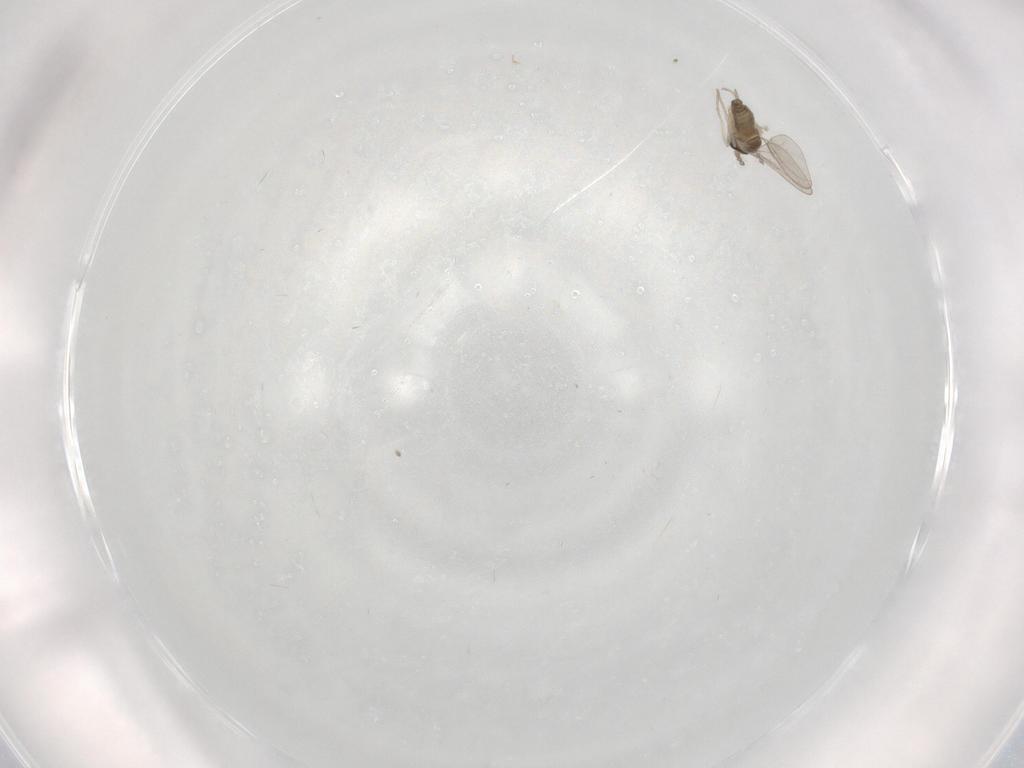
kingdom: Animalia
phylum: Arthropoda
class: Insecta
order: Diptera
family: Cecidomyiidae
